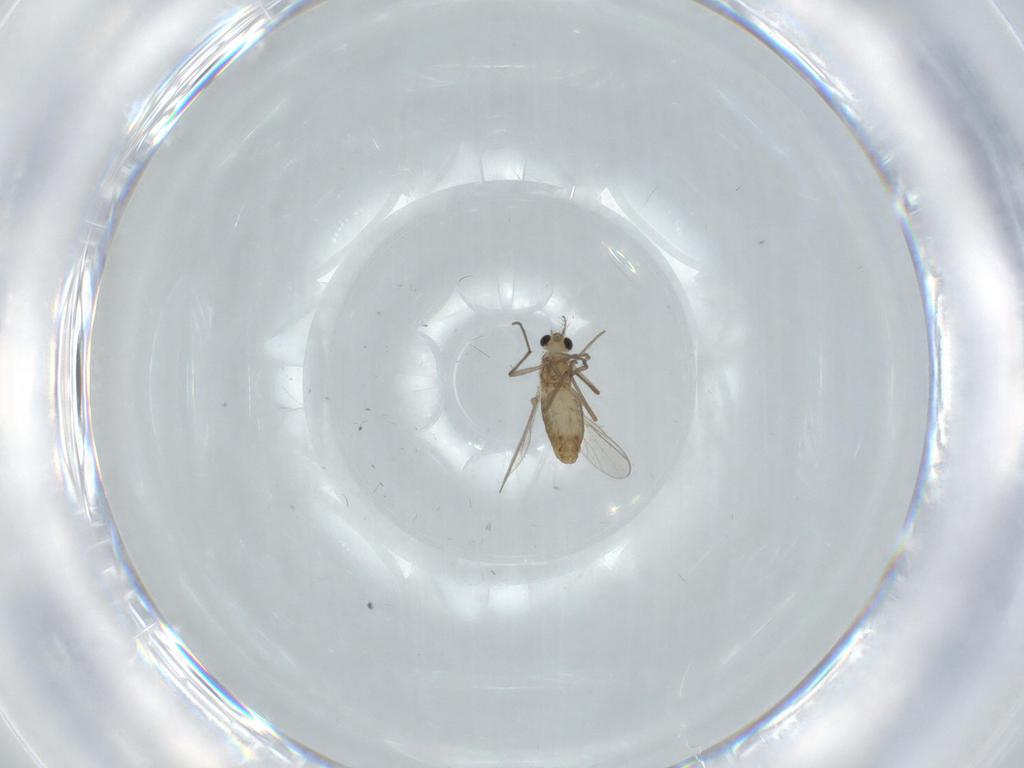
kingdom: Animalia
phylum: Arthropoda
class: Insecta
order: Diptera
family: Chironomidae
